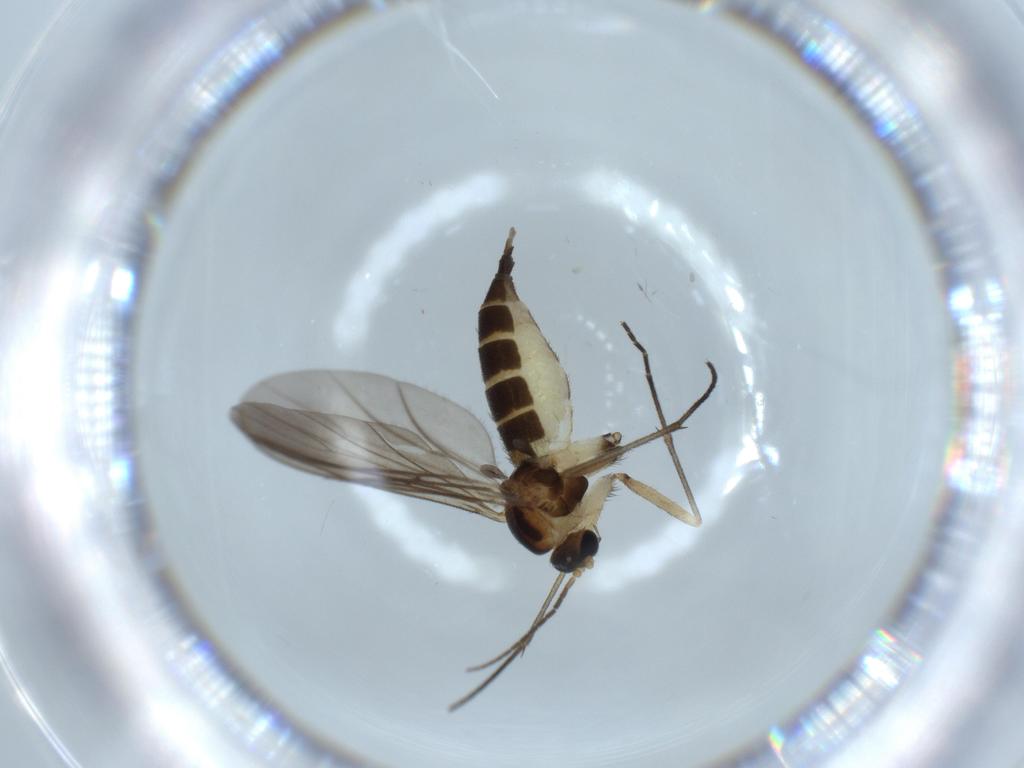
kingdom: Animalia
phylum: Arthropoda
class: Insecta
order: Diptera
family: Sciaridae
